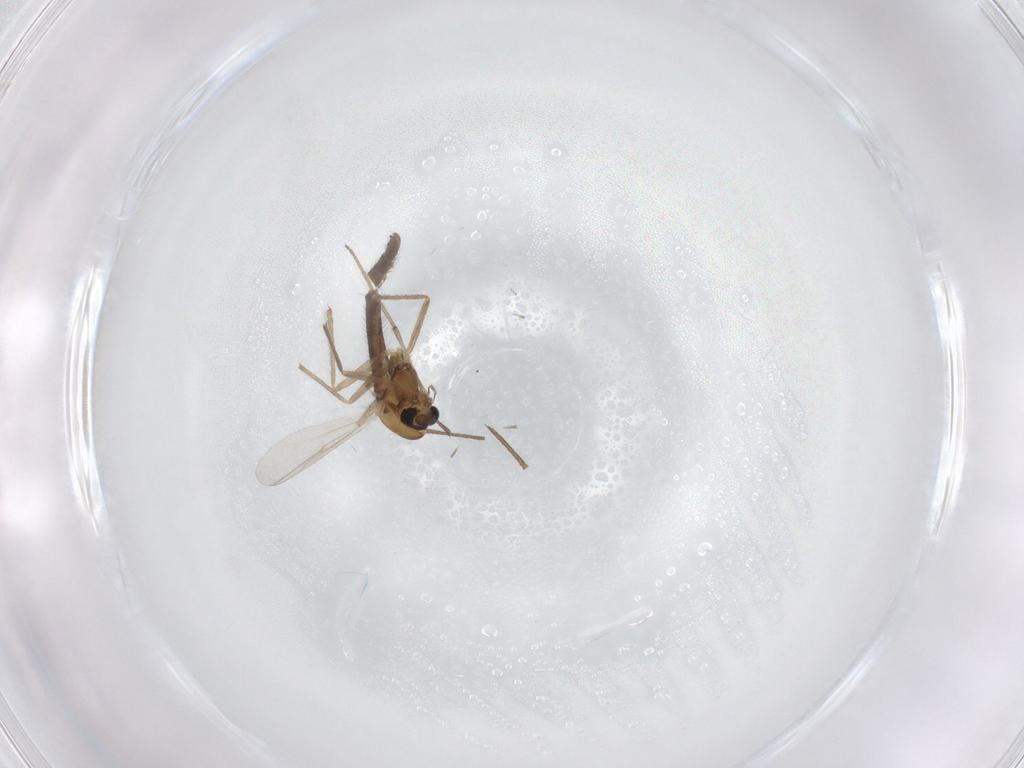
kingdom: Animalia
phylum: Arthropoda
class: Insecta
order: Diptera
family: Chironomidae
